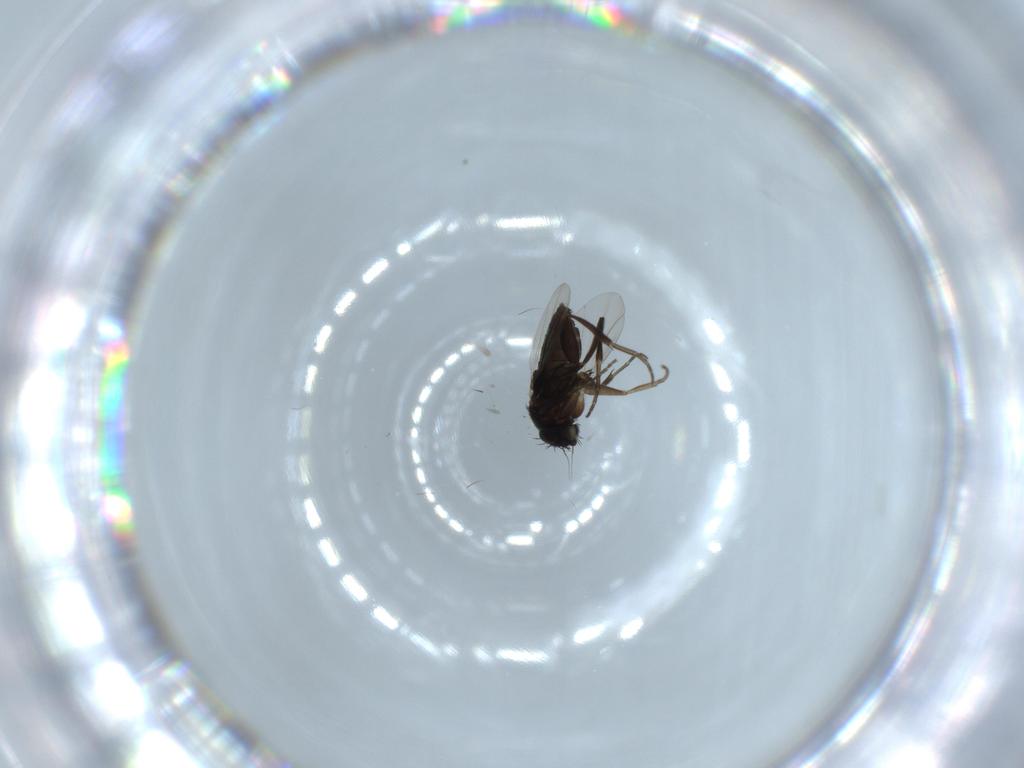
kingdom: Animalia
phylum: Arthropoda
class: Insecta
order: Diptera
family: Phoridae
